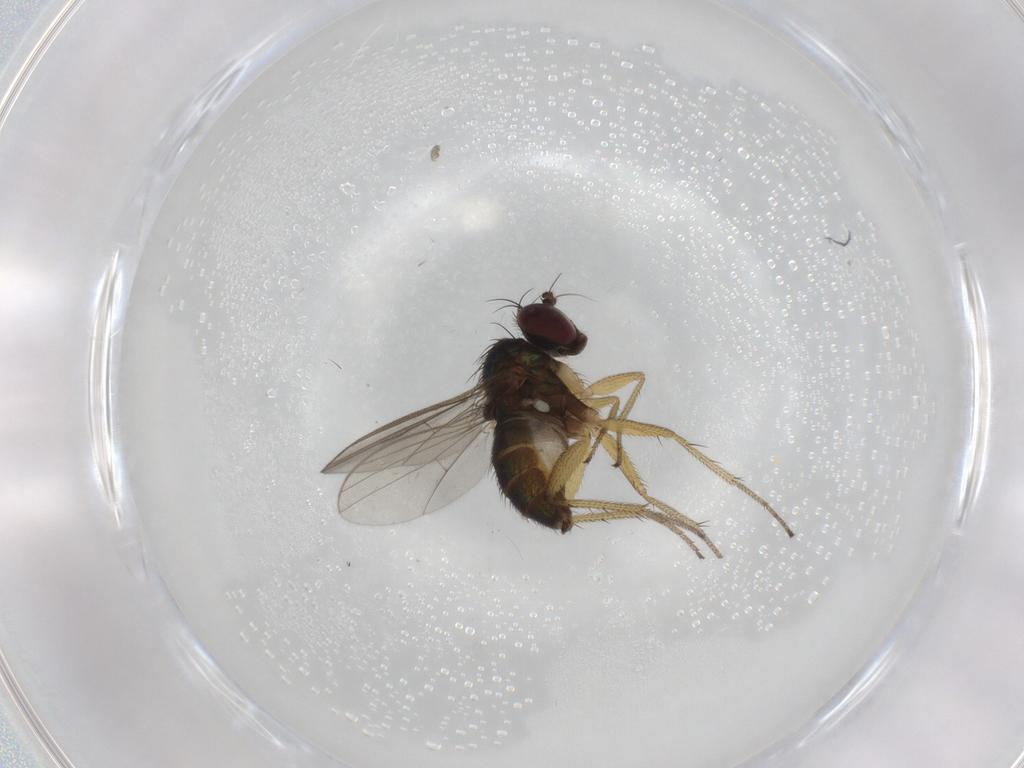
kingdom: Animalia
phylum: Arthropoda
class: Insecta
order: Diptera
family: Dolichopodidae
